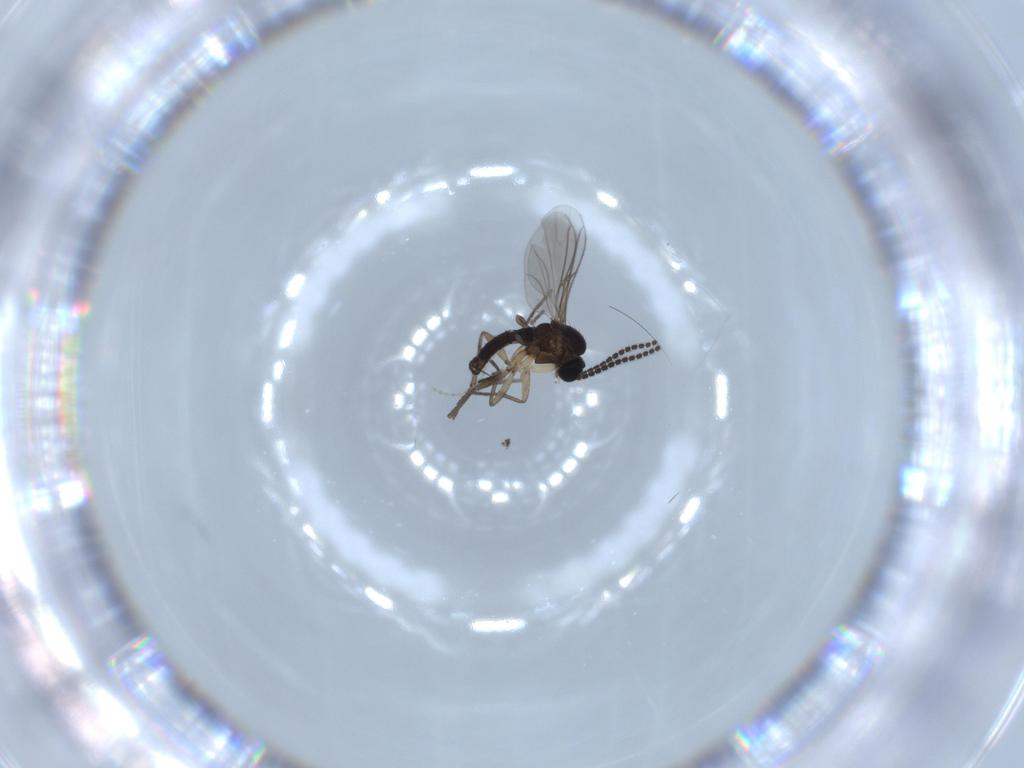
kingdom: Animalia
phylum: Arthropoda
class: Insecta
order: Diptera
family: Sciaridae
